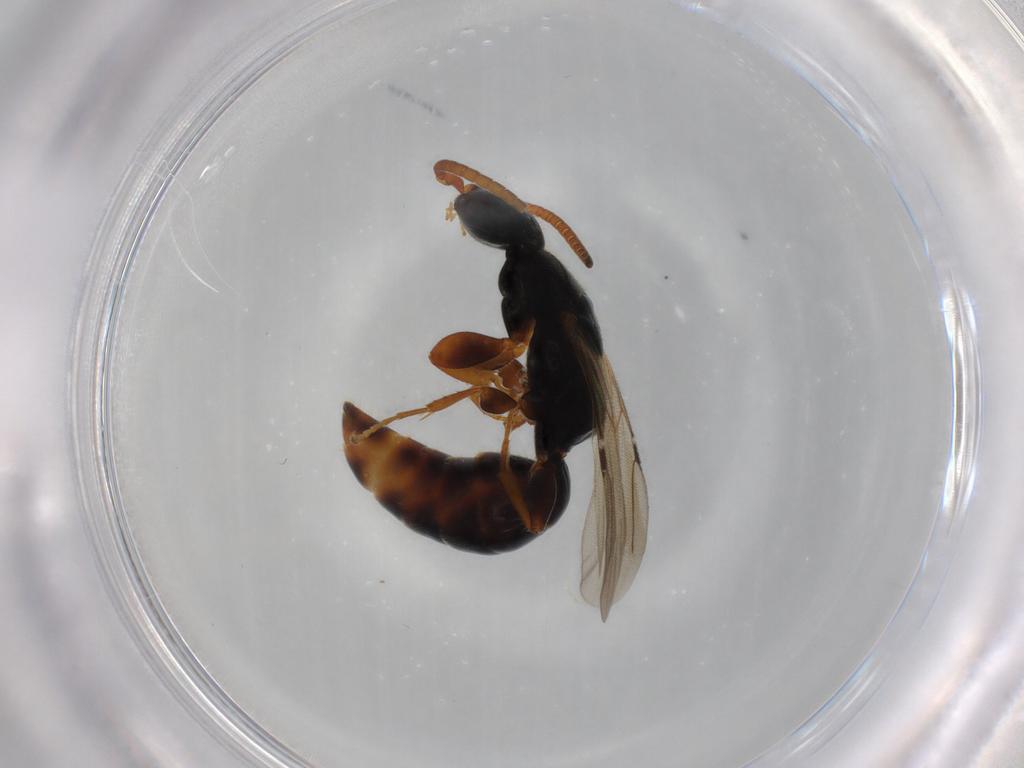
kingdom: Animalia
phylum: Arthropoda
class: Insecta
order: Hymenoptera
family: Bethylidae
